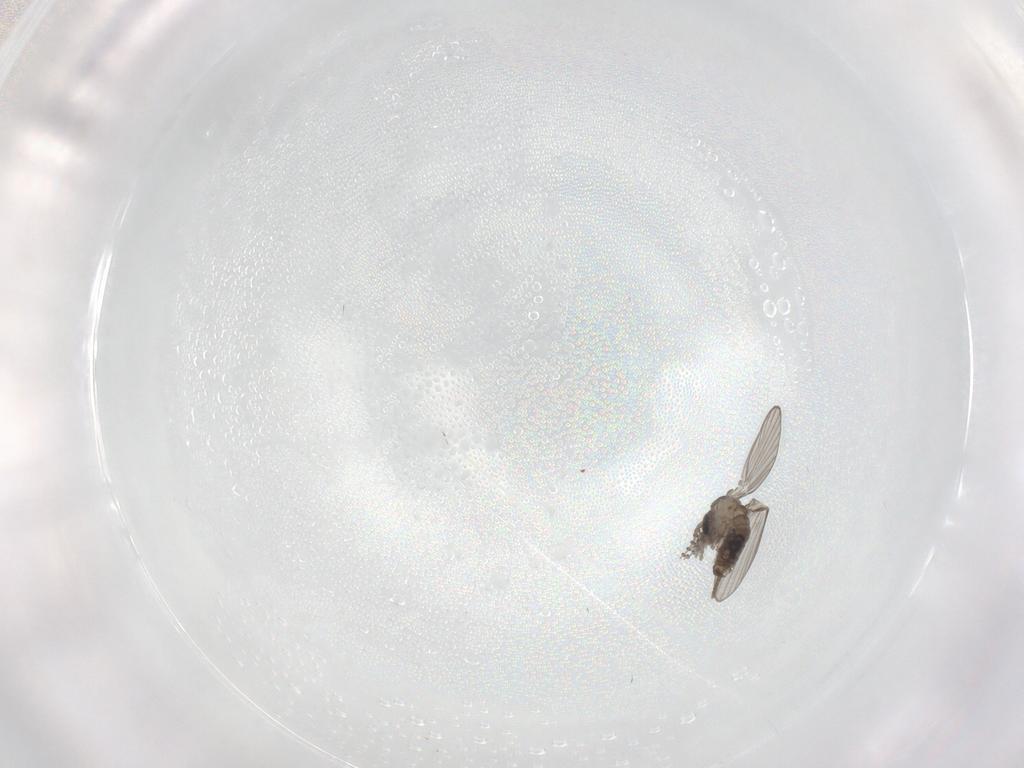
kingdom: Animalia
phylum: Arthropoda
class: Insecta
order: Diptera
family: Psychodidae
